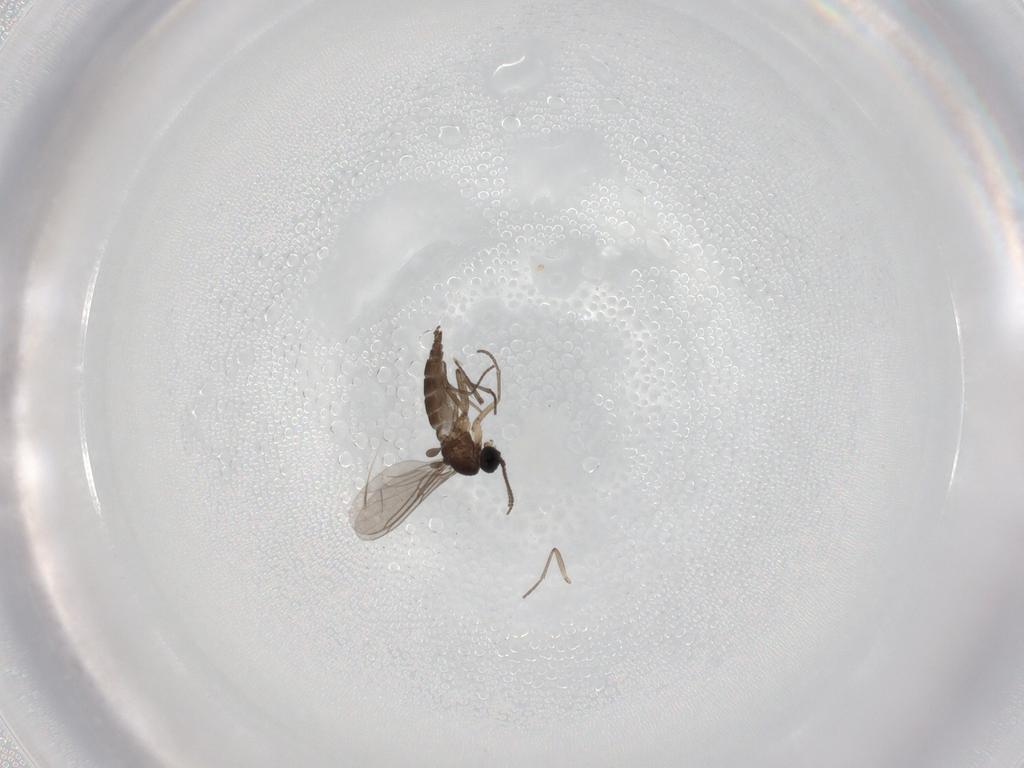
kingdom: Animalia
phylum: Arthropoda
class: Insecta
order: Diptera
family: Sciaridae
